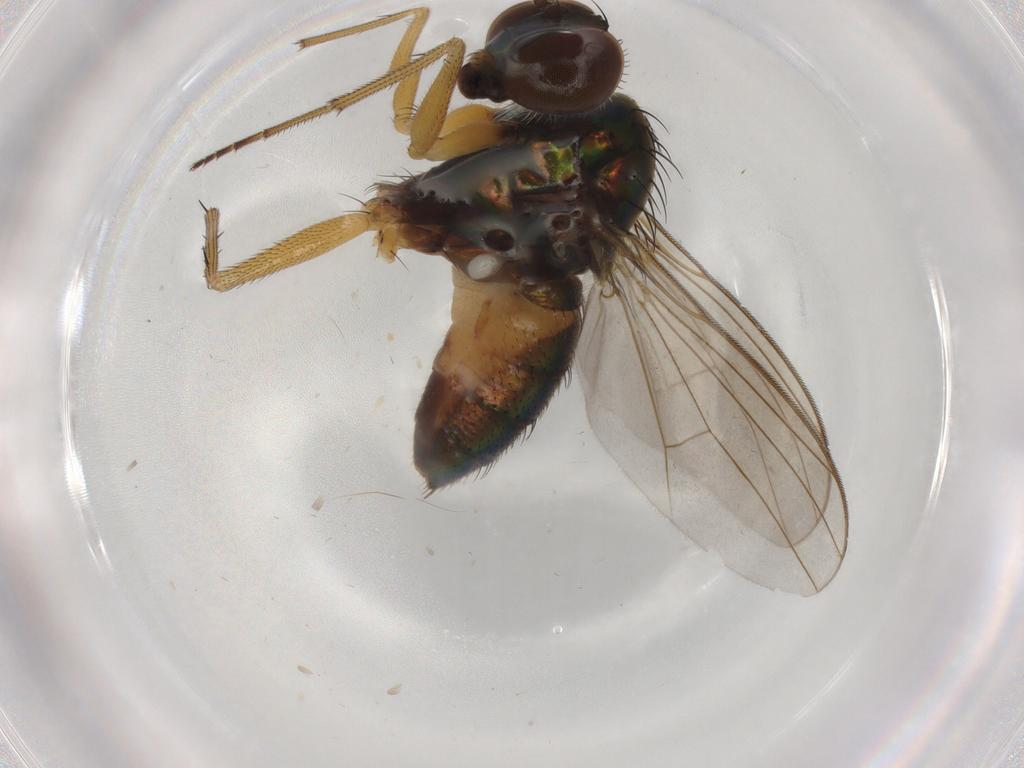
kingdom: Animalia
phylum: Arthropoda
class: Insecta
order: Diptera
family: Dolichopodidae
